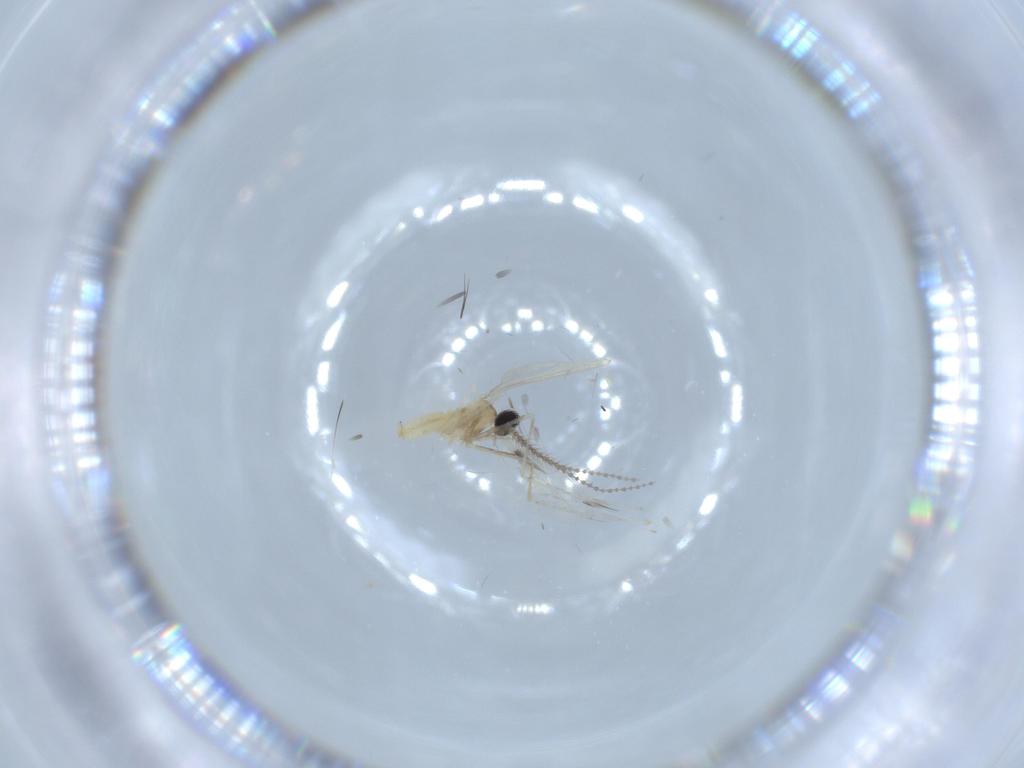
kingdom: Animalia
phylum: Arthropoda
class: Insecta
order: Diptera
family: Cecidomyiidae
